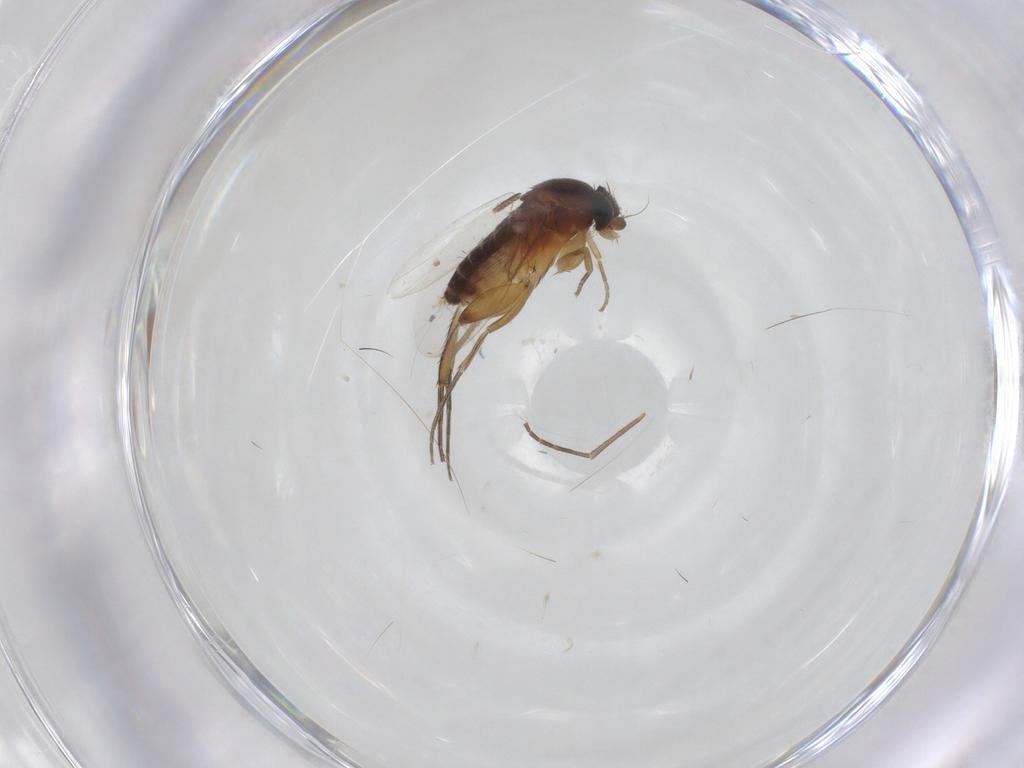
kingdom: Animalia
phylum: Arthropoda
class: Insecta
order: Diptera
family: Phoridae
